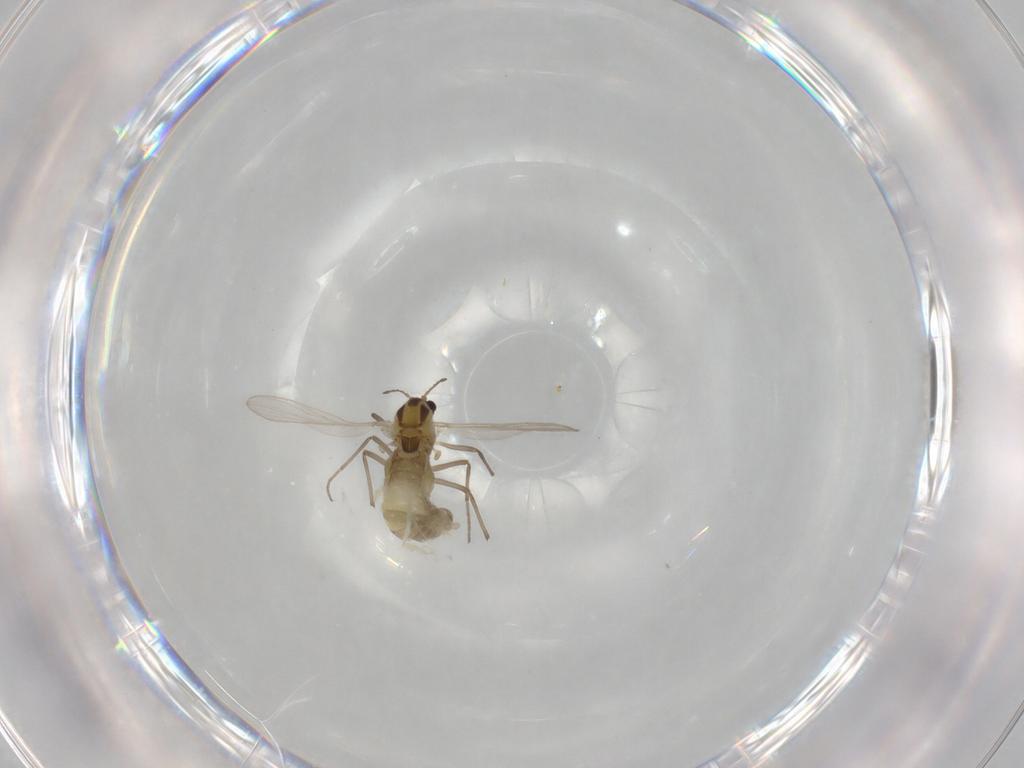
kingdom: Animalia
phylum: Arthropoda
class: Insecta
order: Diptera
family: Chironomidae
